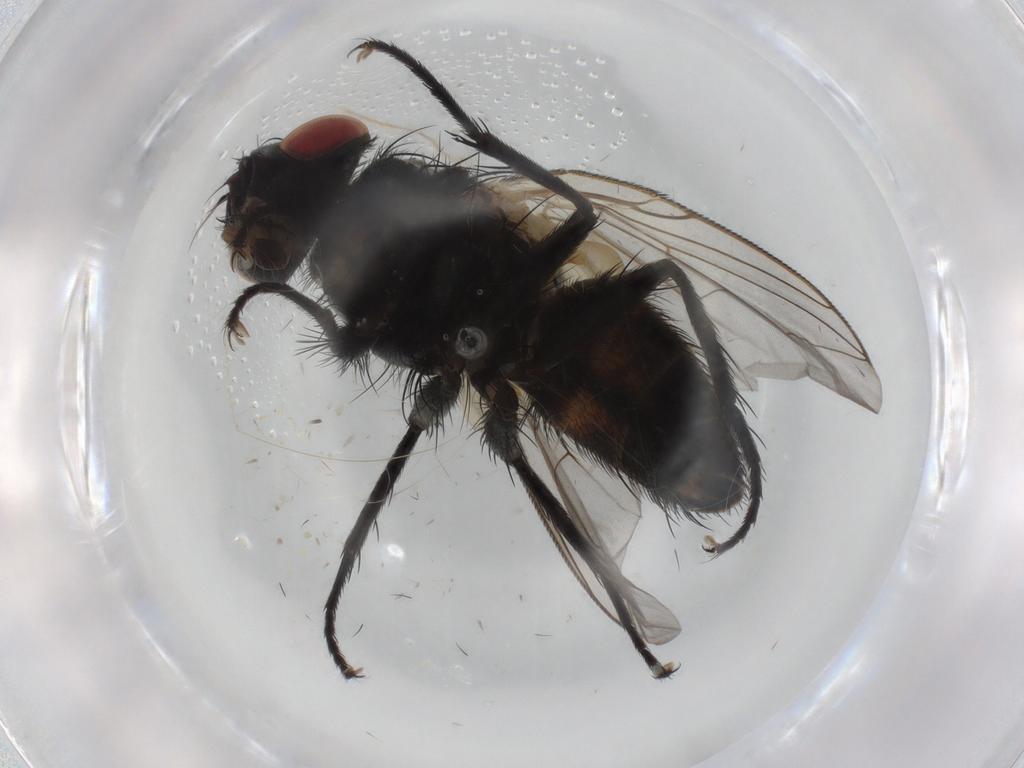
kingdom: Animalia
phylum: Arthropoda
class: Insecta
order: Diptera
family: Sarcophagidae
